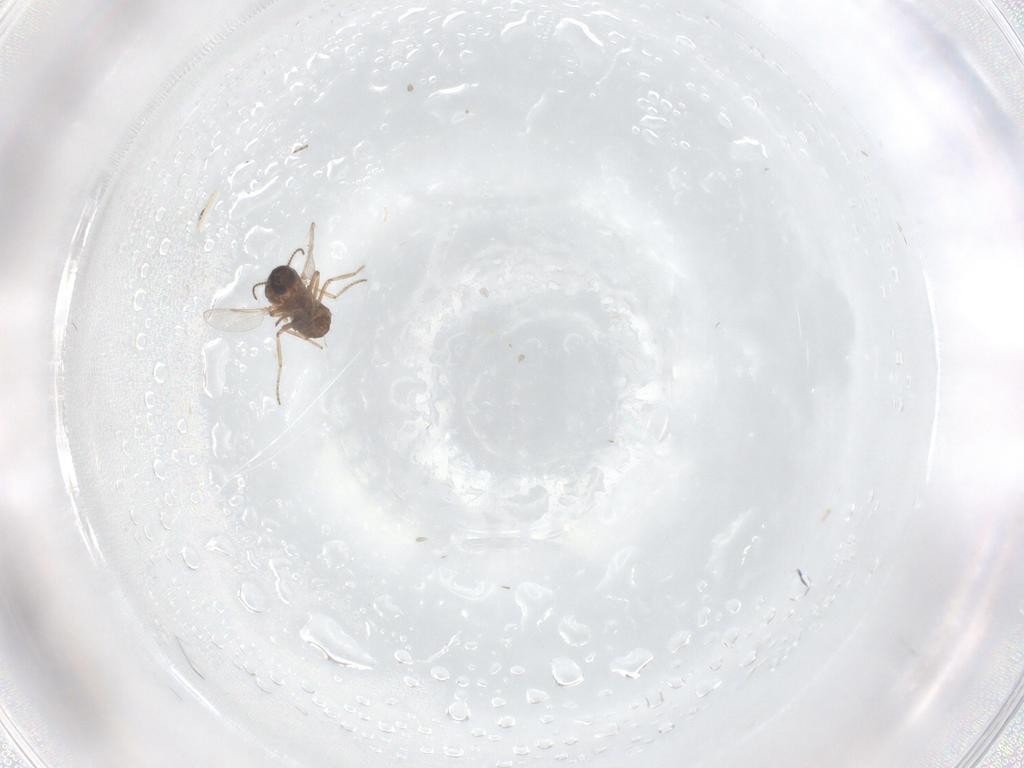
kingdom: Animalia
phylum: Arthropoda
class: Insecta
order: Diptera
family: Ceratopogonidae
